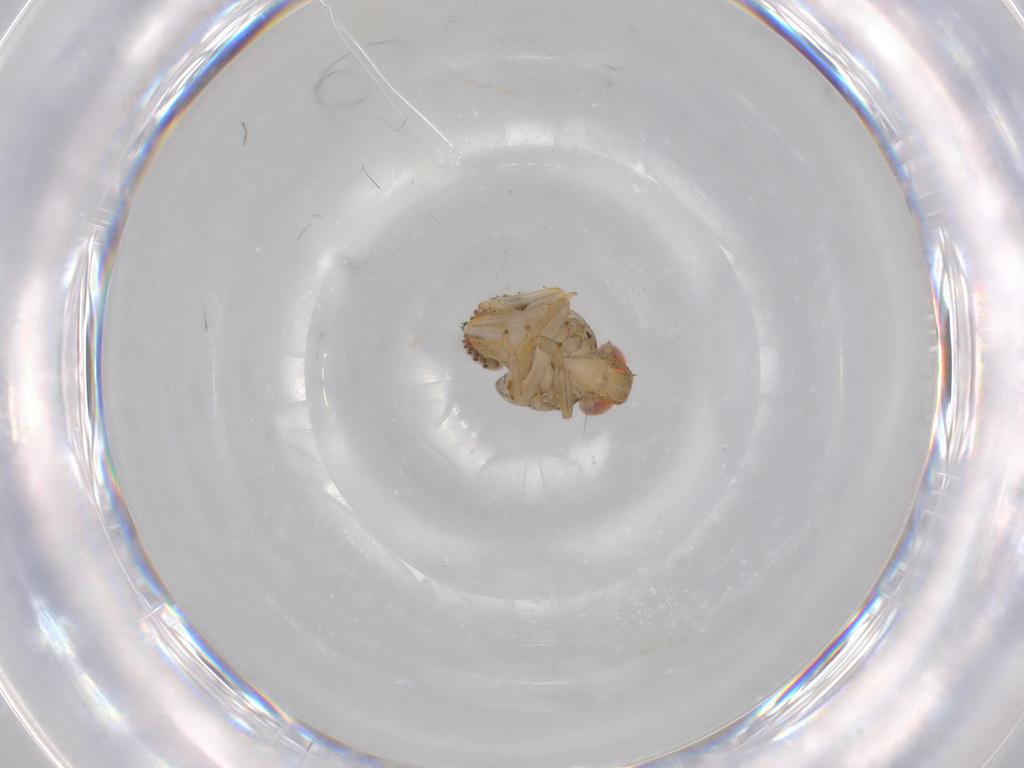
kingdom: Animalia
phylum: Arthropoda
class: Insecta
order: Hemiptera
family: Issidae
